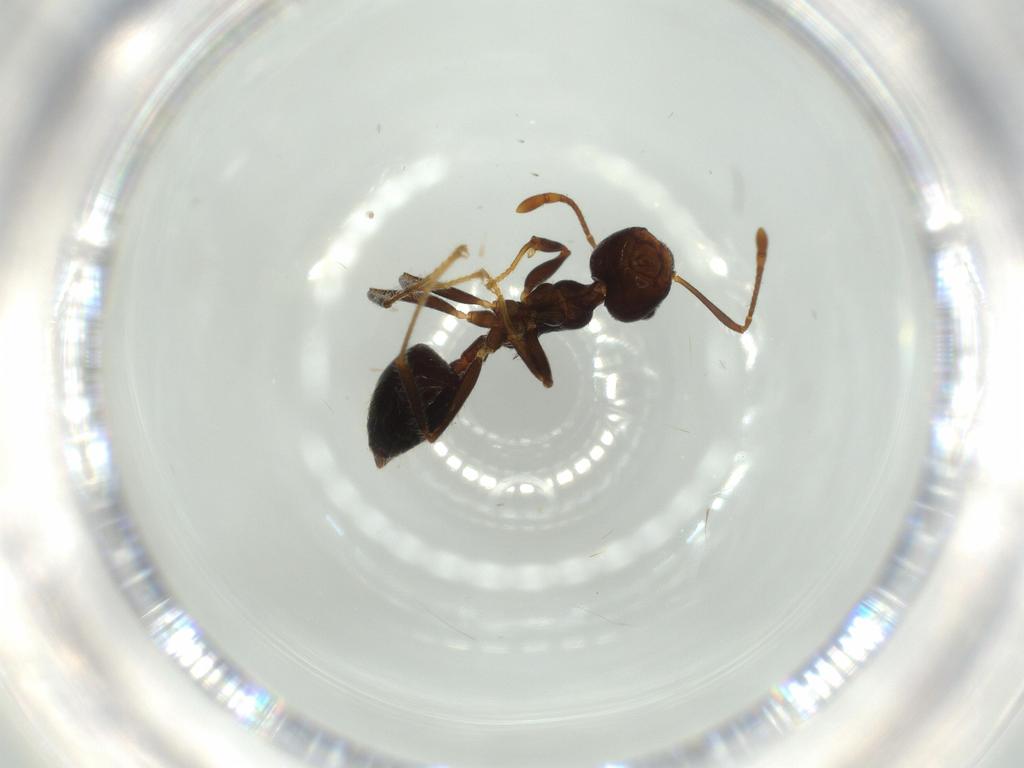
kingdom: Animalia
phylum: Arthropoda
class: Insecta
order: Hymenoptera
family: Formicidae
